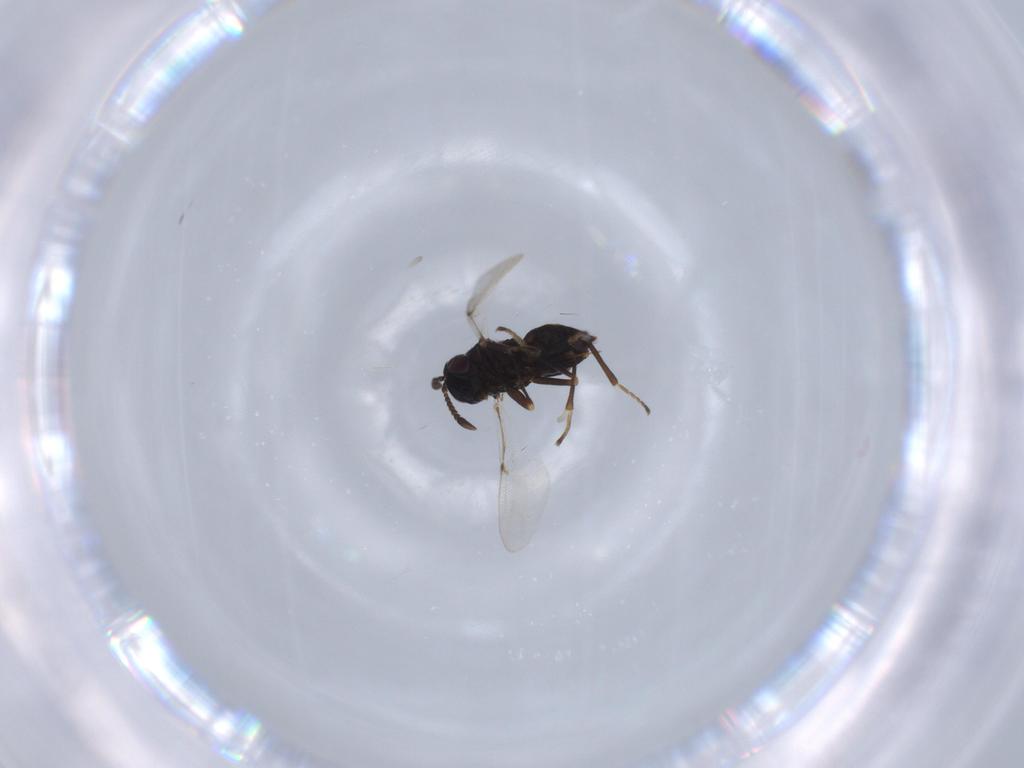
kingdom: Animalia
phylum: Arthropoda
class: Insecta
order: Hymenoptera
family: Encyrtidae
